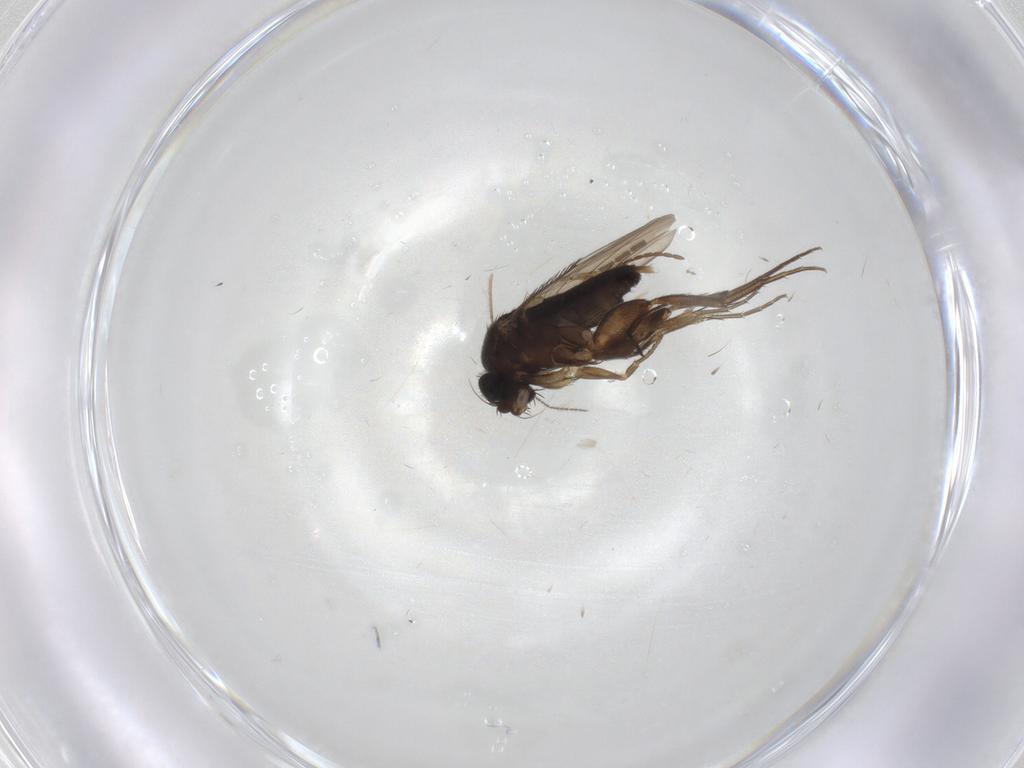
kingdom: Animalia
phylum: Arthropoda
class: Insecta
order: Diptera
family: Phoridae
